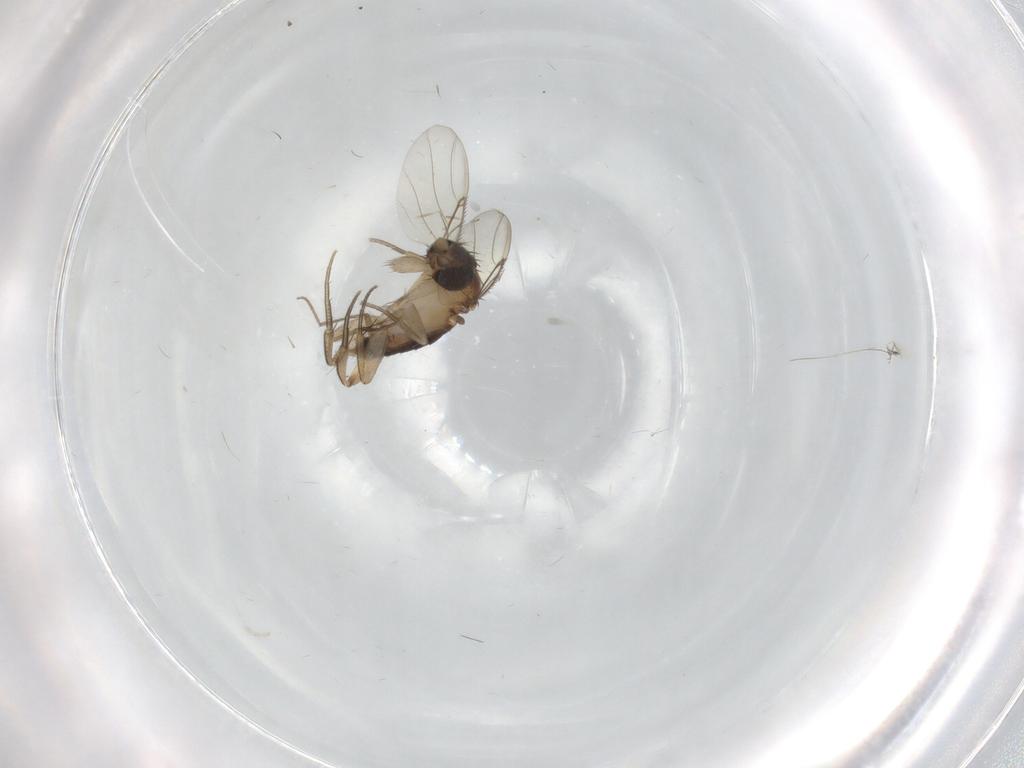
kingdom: Animalia
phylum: Arthropoda
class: Insecta
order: Diptera
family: Phoridae
